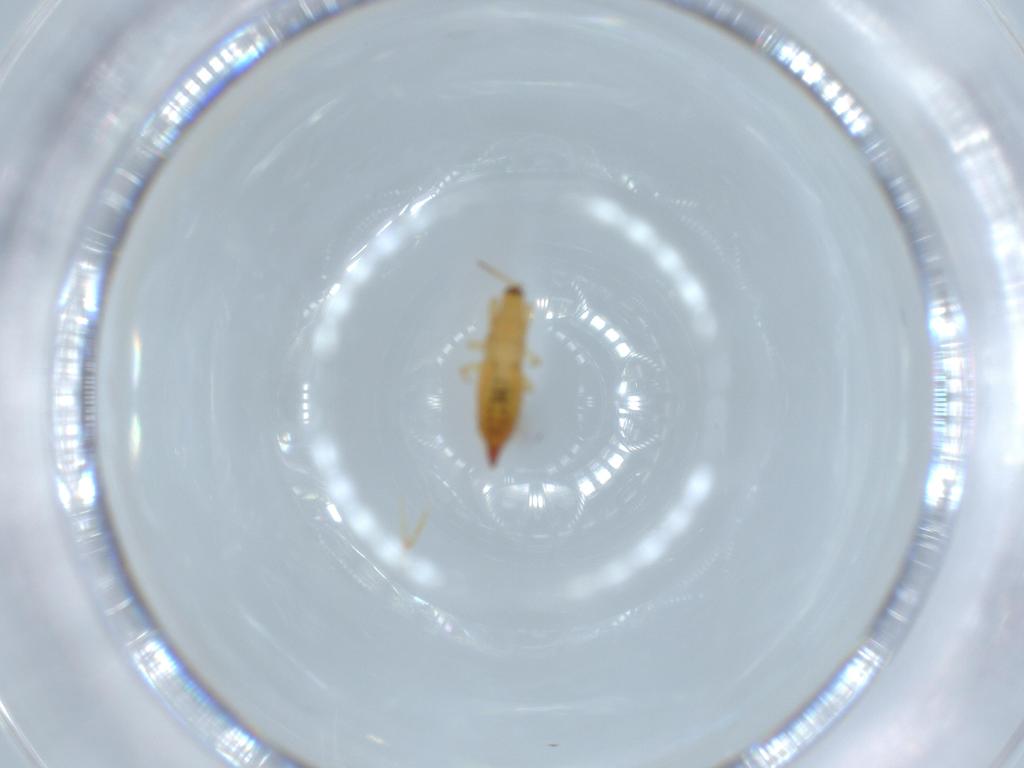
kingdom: Animalia
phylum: Arthropoda
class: Insecta
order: Thysanoptera
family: Phlaeothripidae
